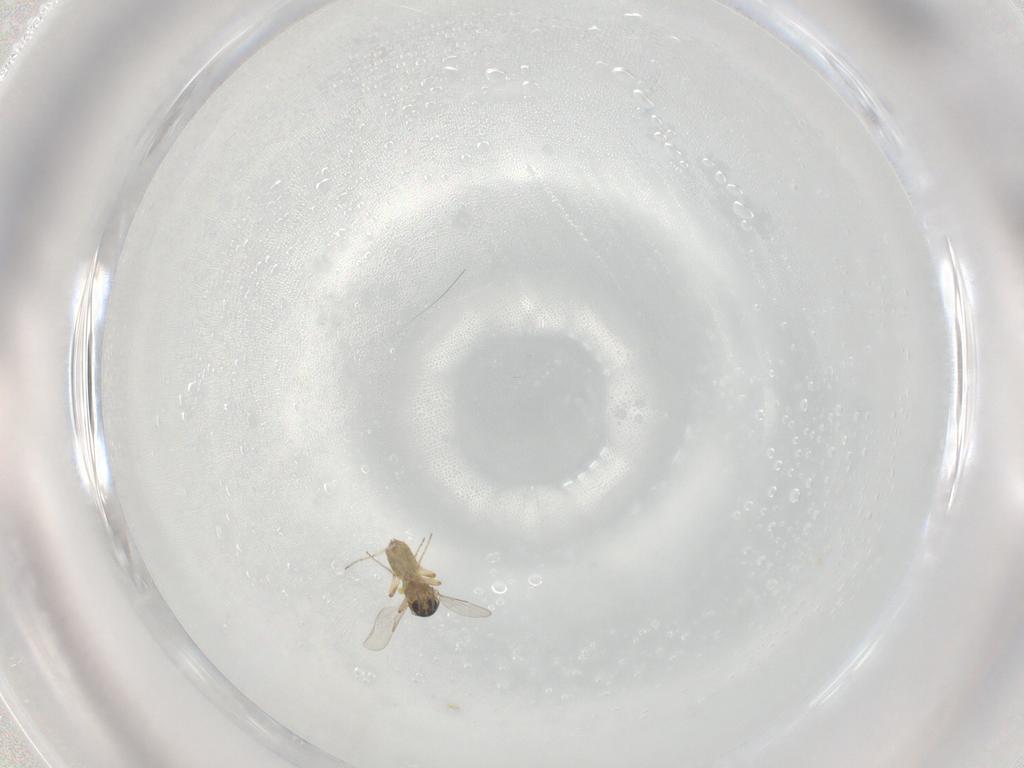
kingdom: Animalia
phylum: Arthropoda
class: Insecta
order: Diptera
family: Ceratopogonidae
